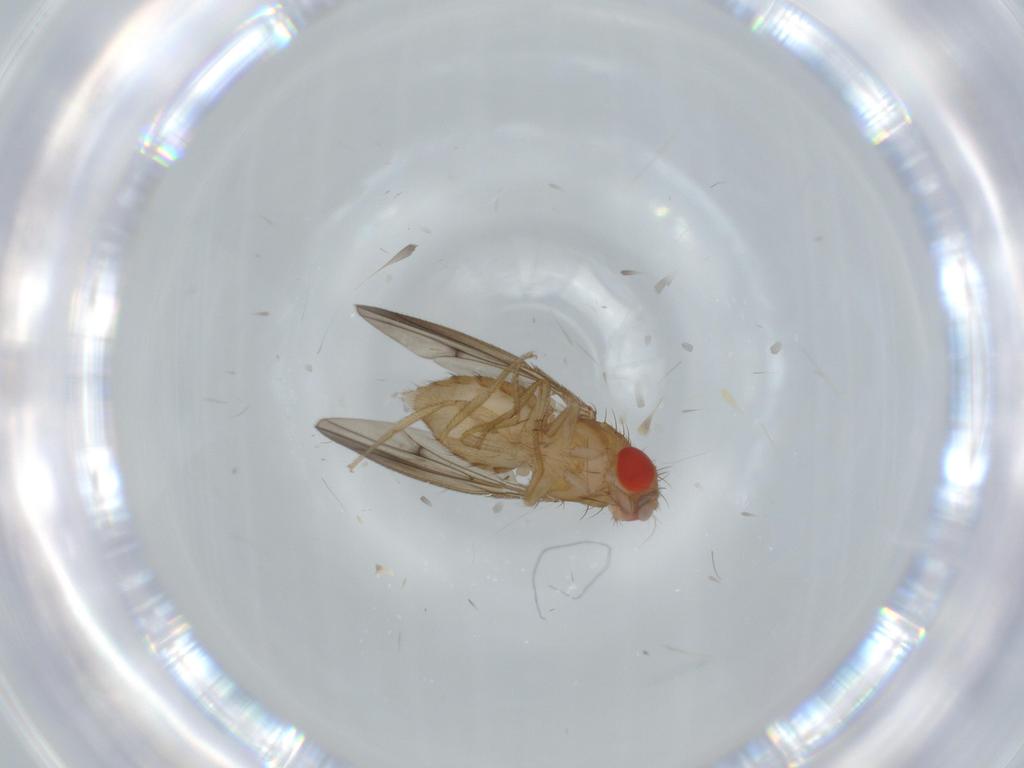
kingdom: Animalia
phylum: Arthropoda
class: Insecta
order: Diptera
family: Drosophilidae
